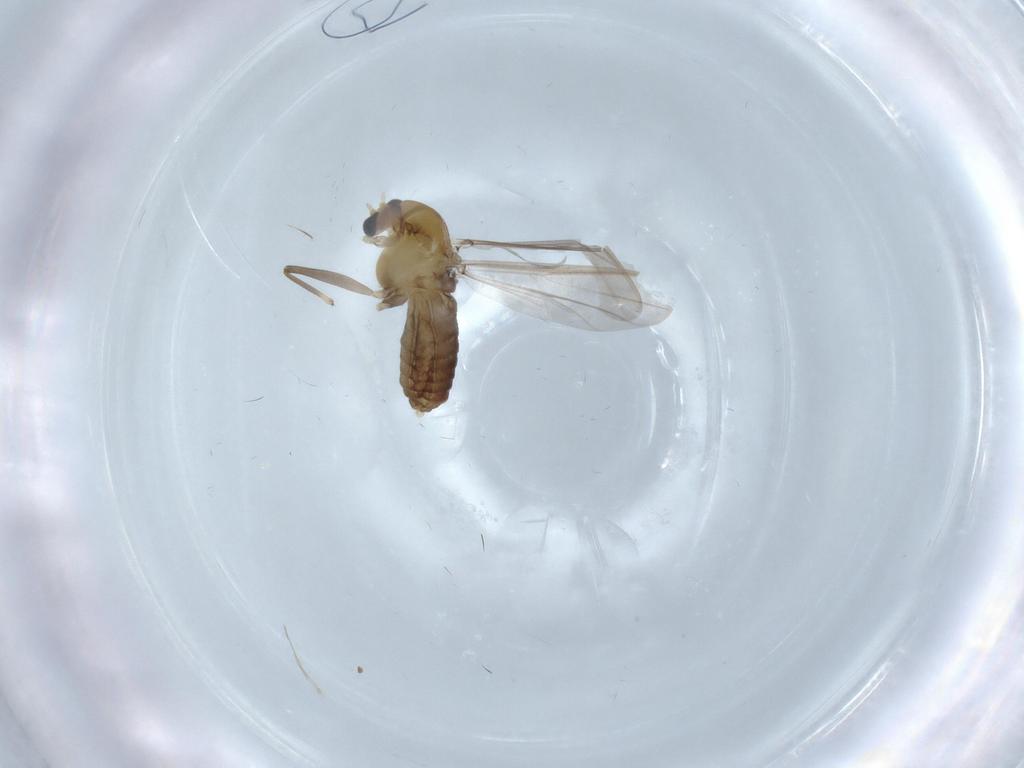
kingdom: Animalia
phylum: Arthropoda
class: Insecta
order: Diptera
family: Chironomidae
